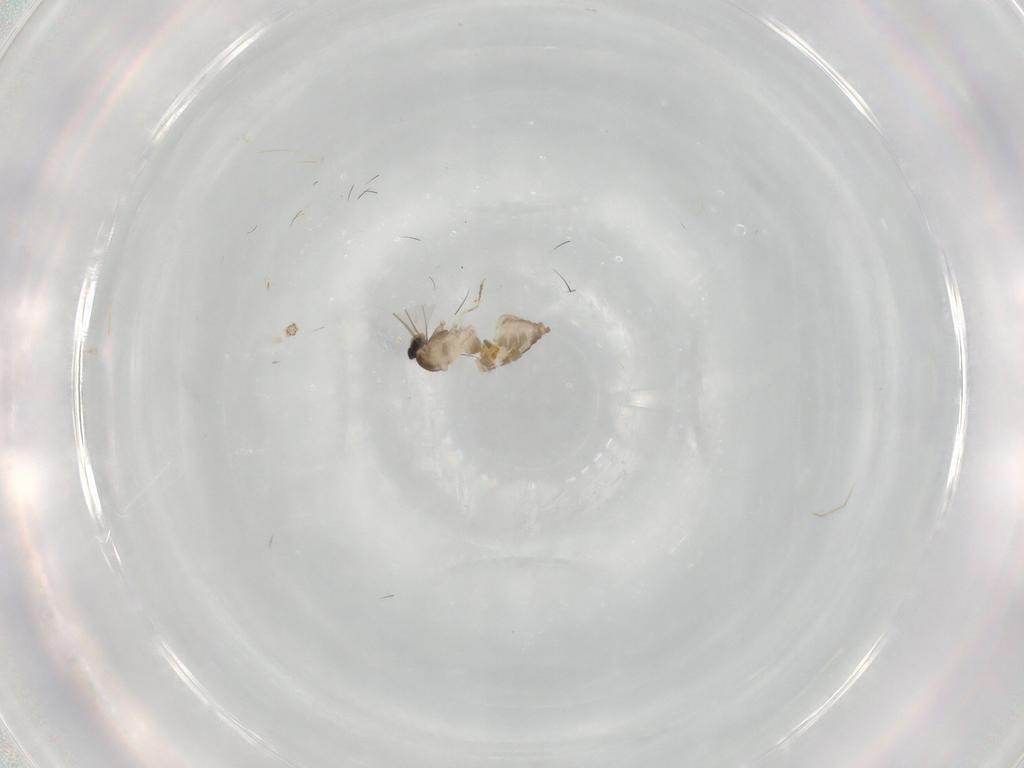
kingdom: Animalia
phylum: Arthropoda
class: Insecta
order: Diptera
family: Cecidomyiidae
